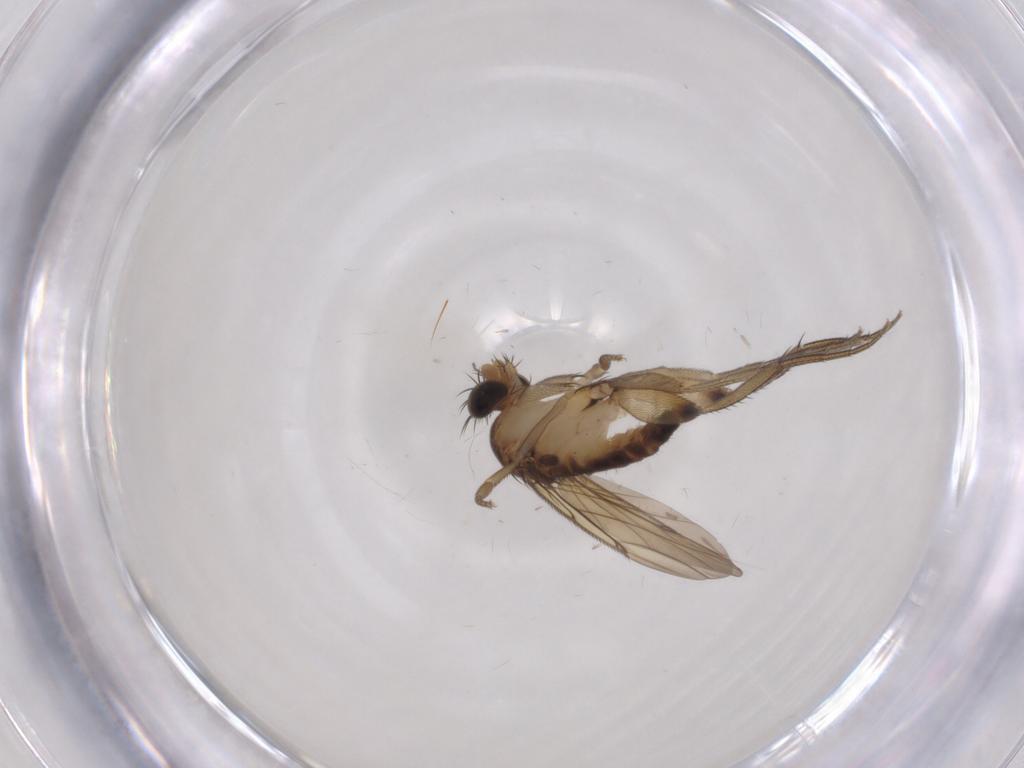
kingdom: Animalia
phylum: Arthropoda
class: Insecta
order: Diptera
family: Phoridae
